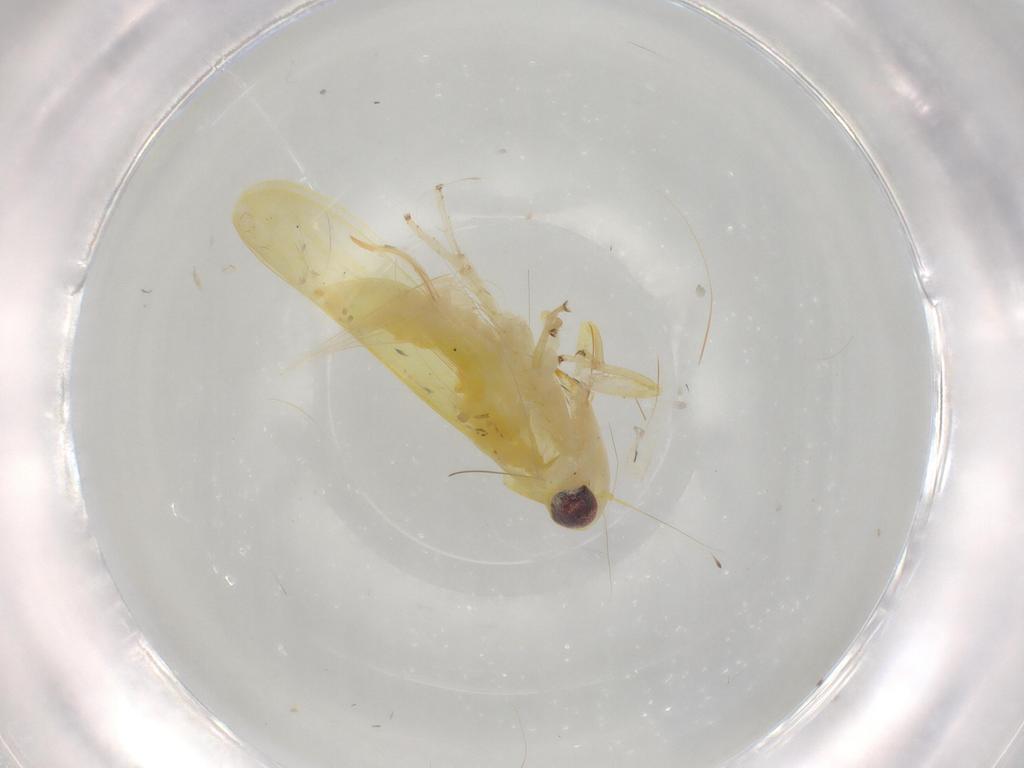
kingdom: Animalia
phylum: Arthropoda
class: Insecta
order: Hemiptera
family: Cicadellidae
